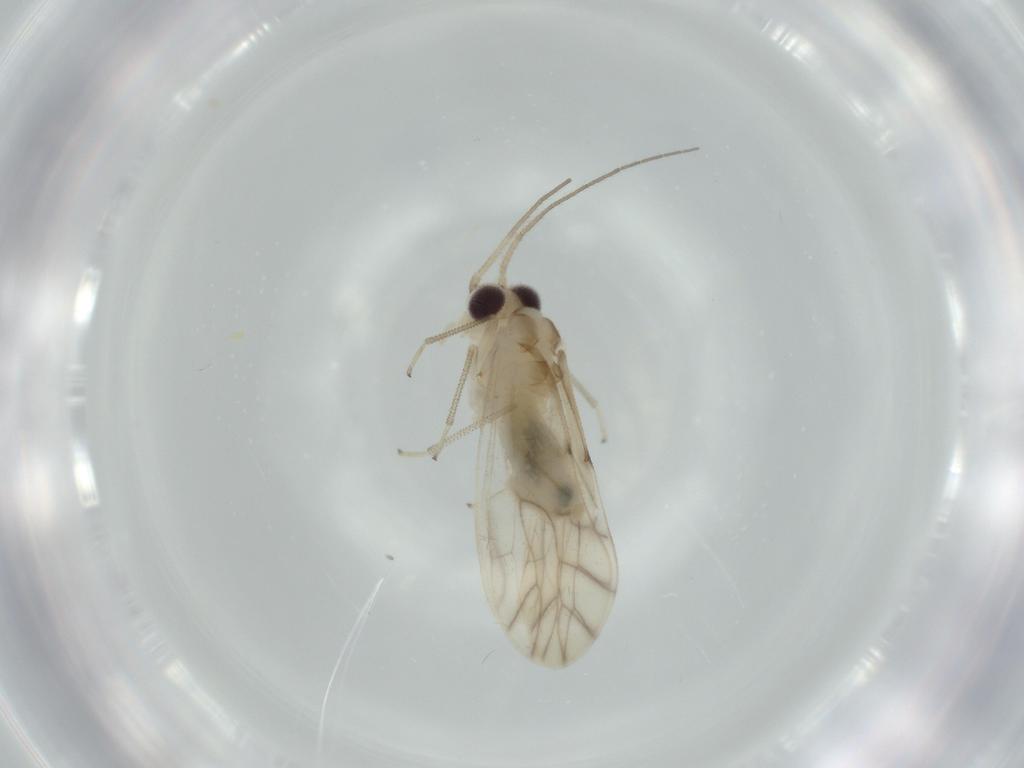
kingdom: Animalia
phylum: Arthropoda
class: Insecta
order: Psocodea
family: Caeciliusidae
